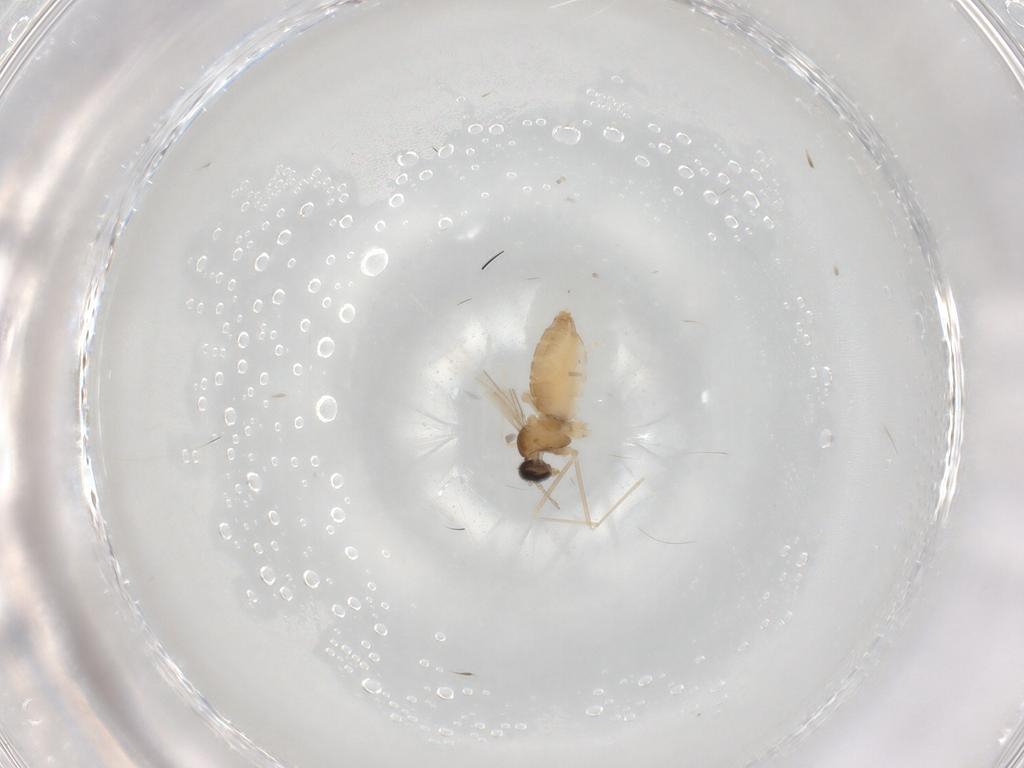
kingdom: Animalia
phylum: Arthropoda
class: Insecta
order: Diptera
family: Cecidomyiidae
